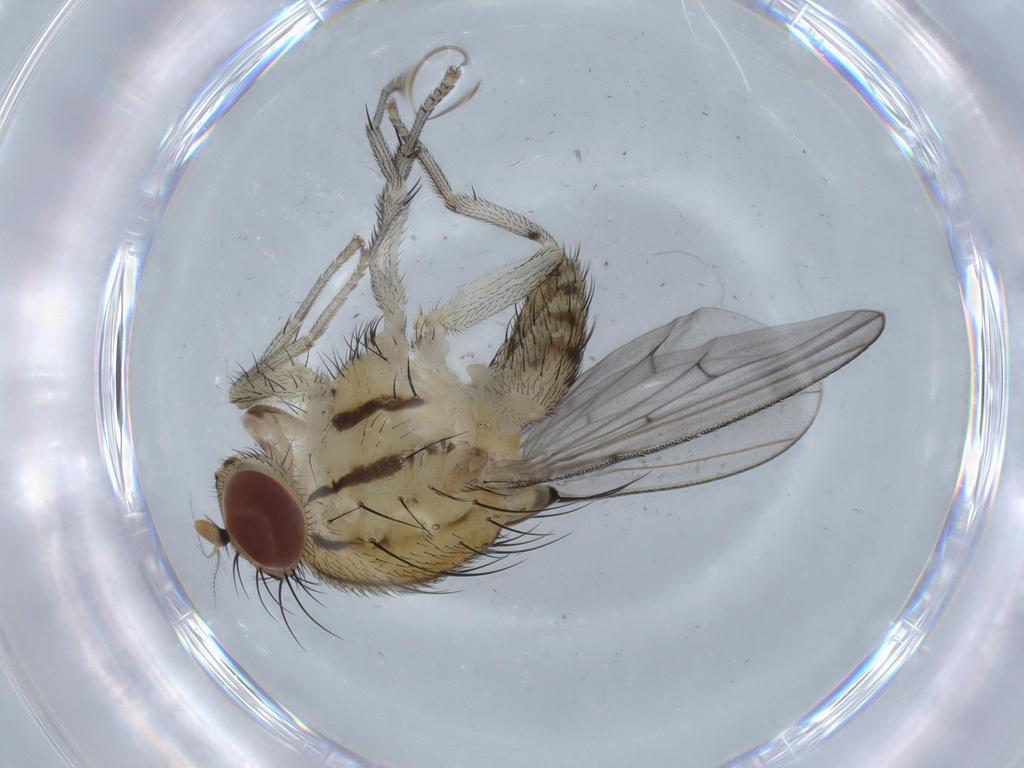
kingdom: Animalia
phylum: Arthropoda
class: Insecta
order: Diptera
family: Lauxaniidae
